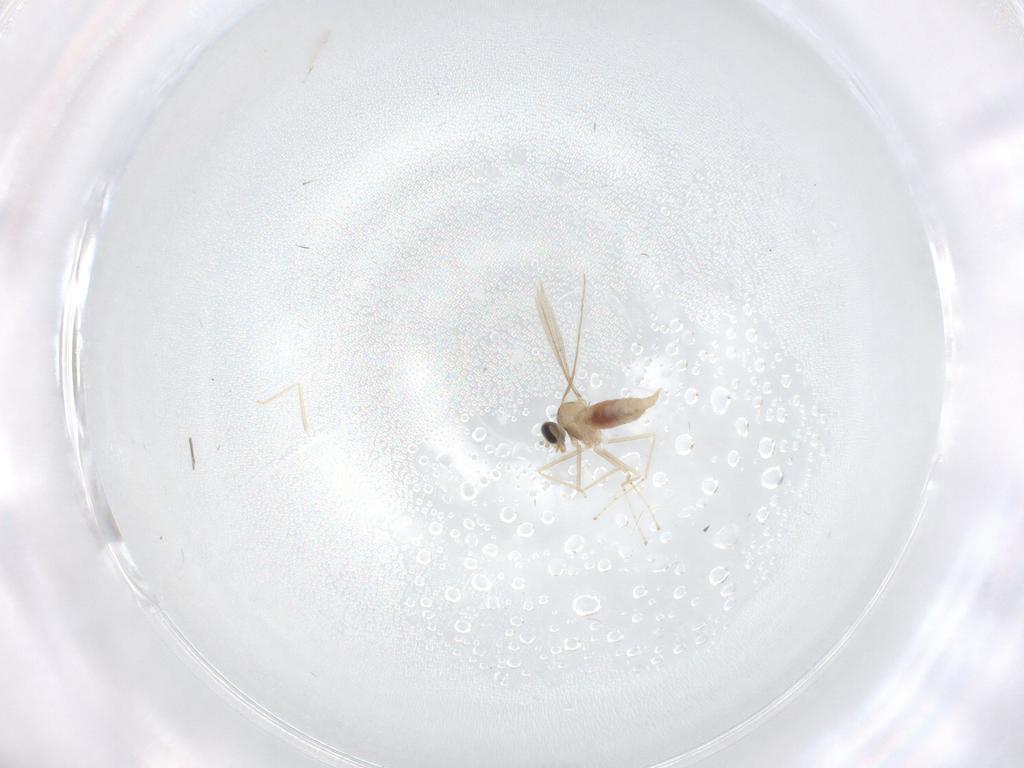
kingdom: Animalia
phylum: Arthropoda
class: Insecta
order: Diptera
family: Cecidomyiidae
